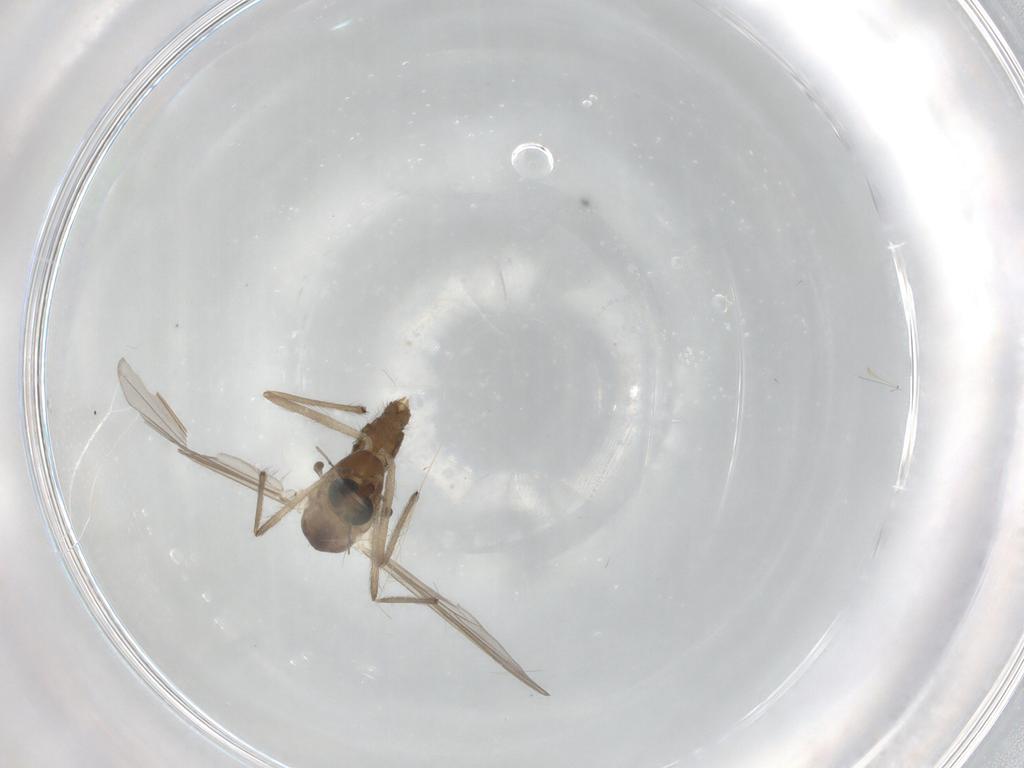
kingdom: Animalia
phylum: Arthropoda
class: Insecta
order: Diptera
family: Chironomidae
